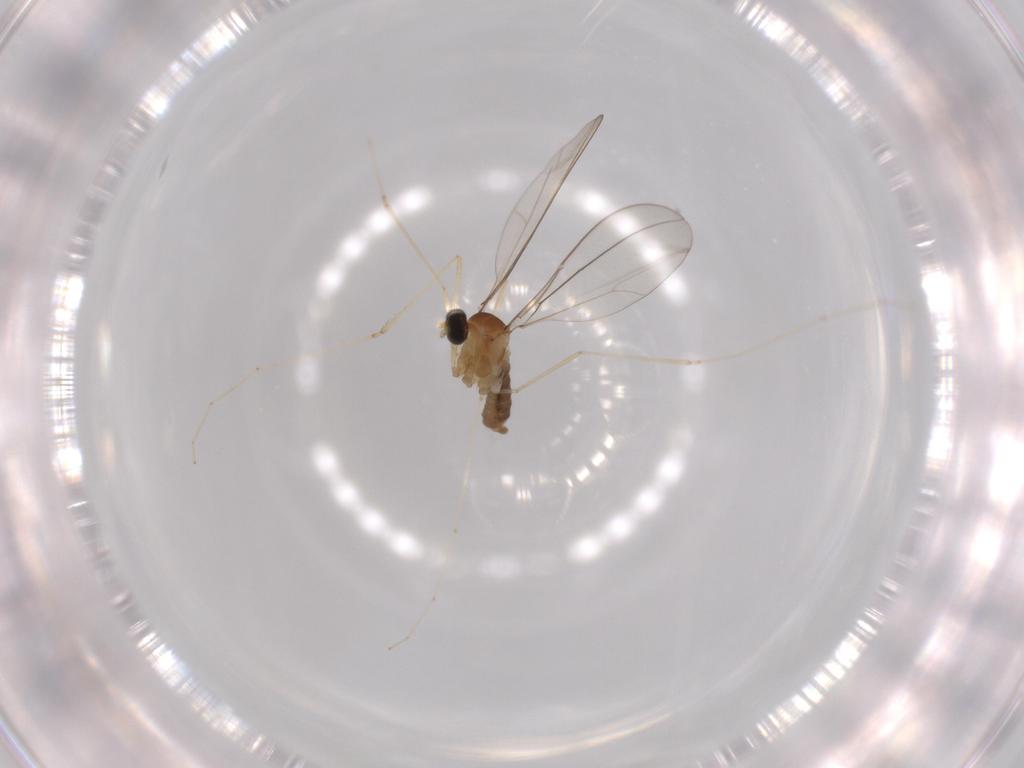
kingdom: Animalia
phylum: Arthropoda
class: Insecta
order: Diptera
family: Cecidomyiidae
